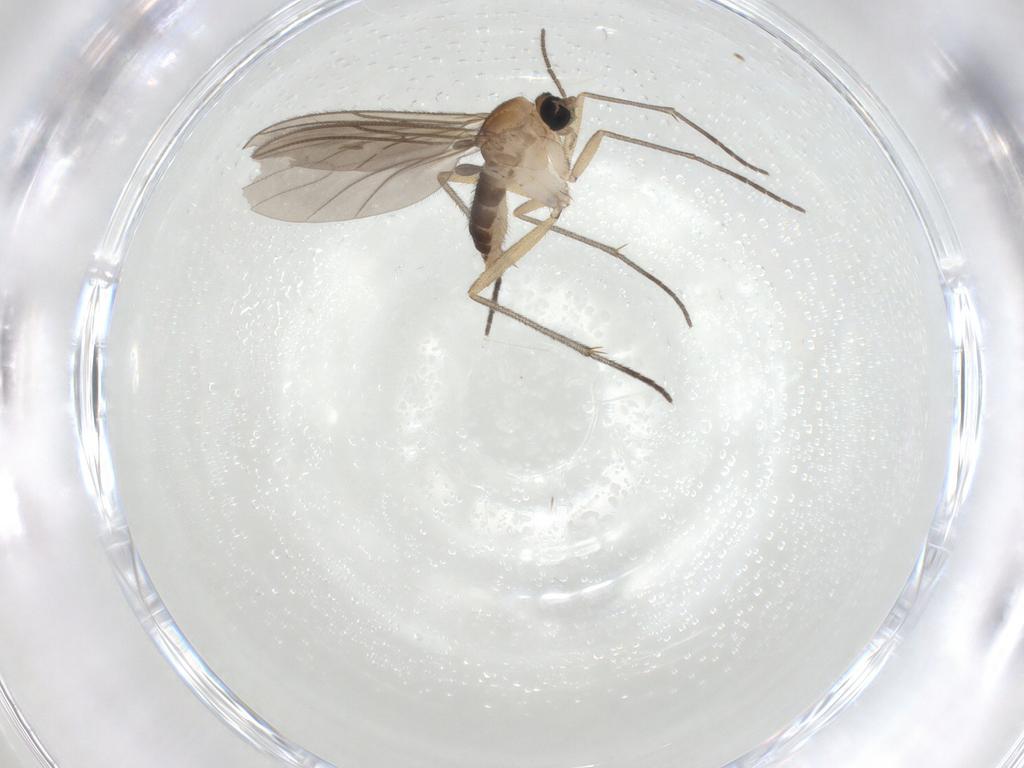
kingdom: Animalia
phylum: Arthropoda
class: Insecta
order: Diptera
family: Sciaridae
